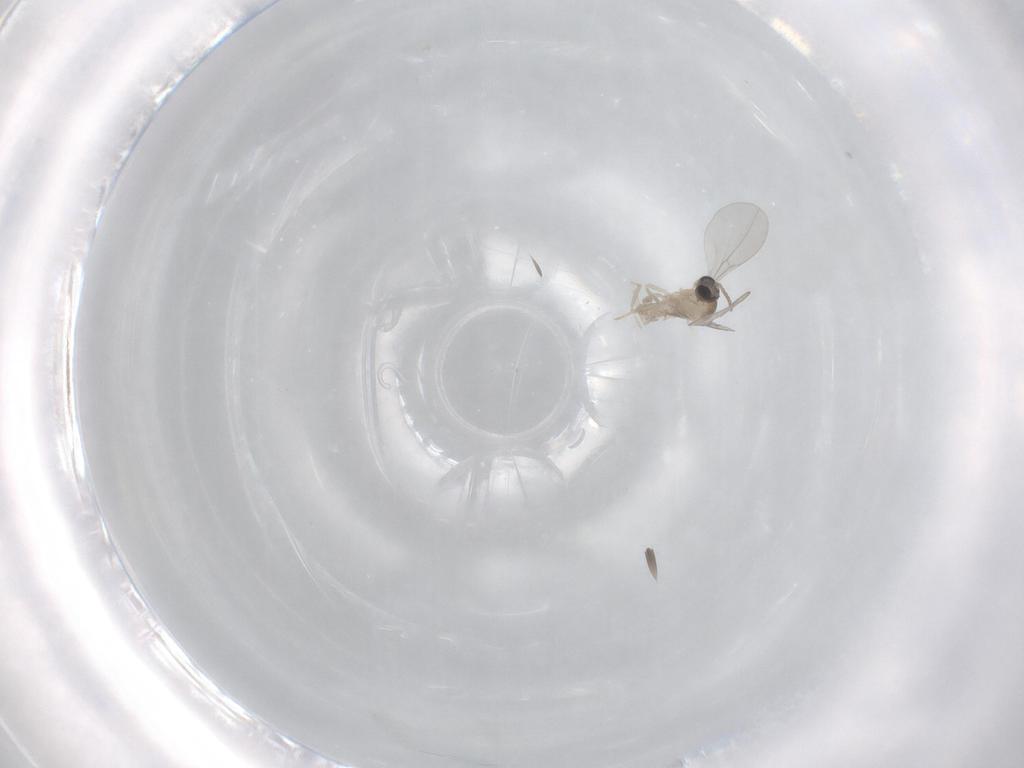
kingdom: Animalia
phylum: Arthropoda
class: Insecta
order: Diptera
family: Cecidomyiidae
